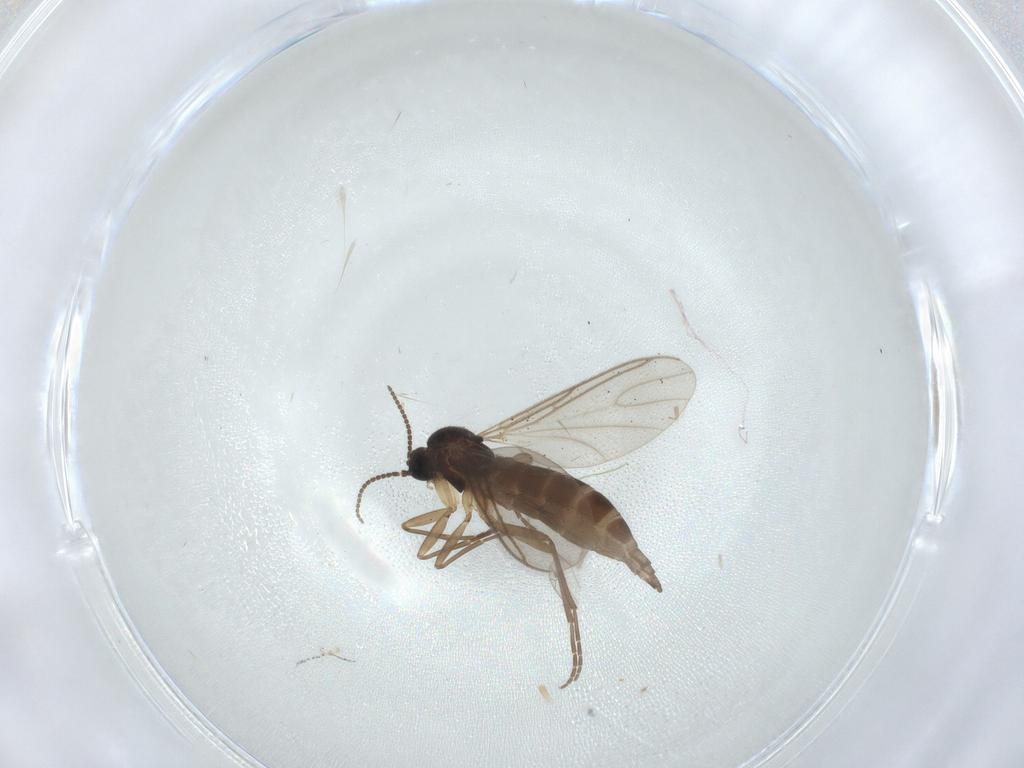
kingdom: Animalia
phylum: Arthropoda
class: Insecta
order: Diptera
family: Sciaridae
